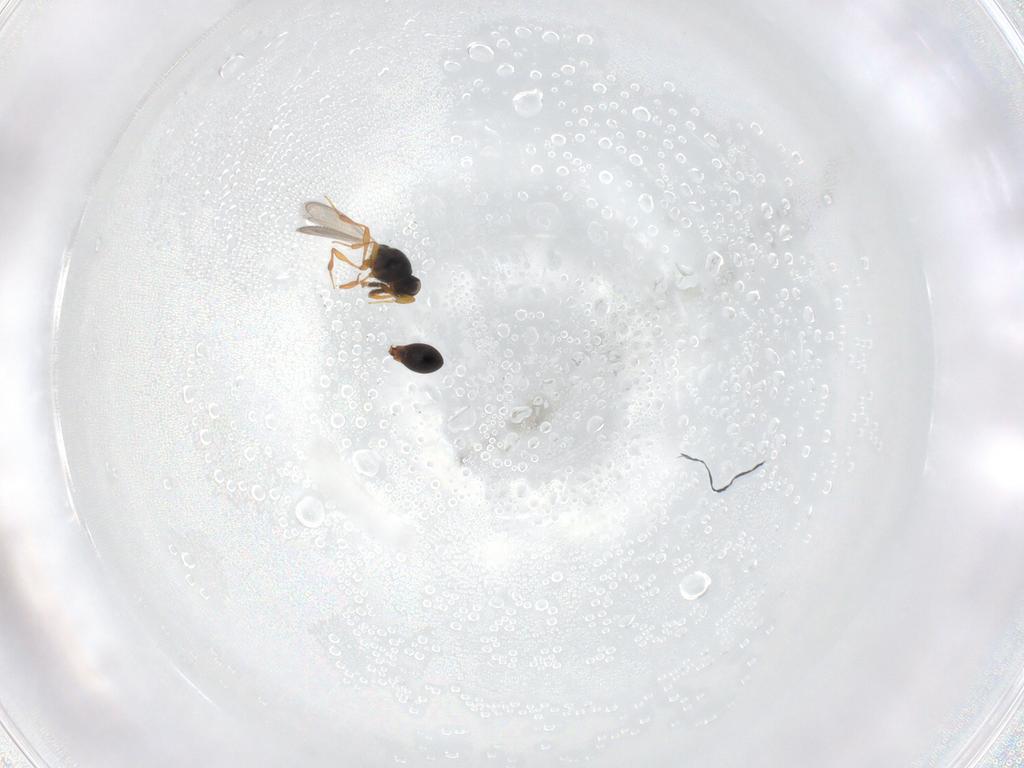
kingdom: Animalia
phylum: Arthropoda
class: Insecta
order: Hymenoptera
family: Platygastridae
